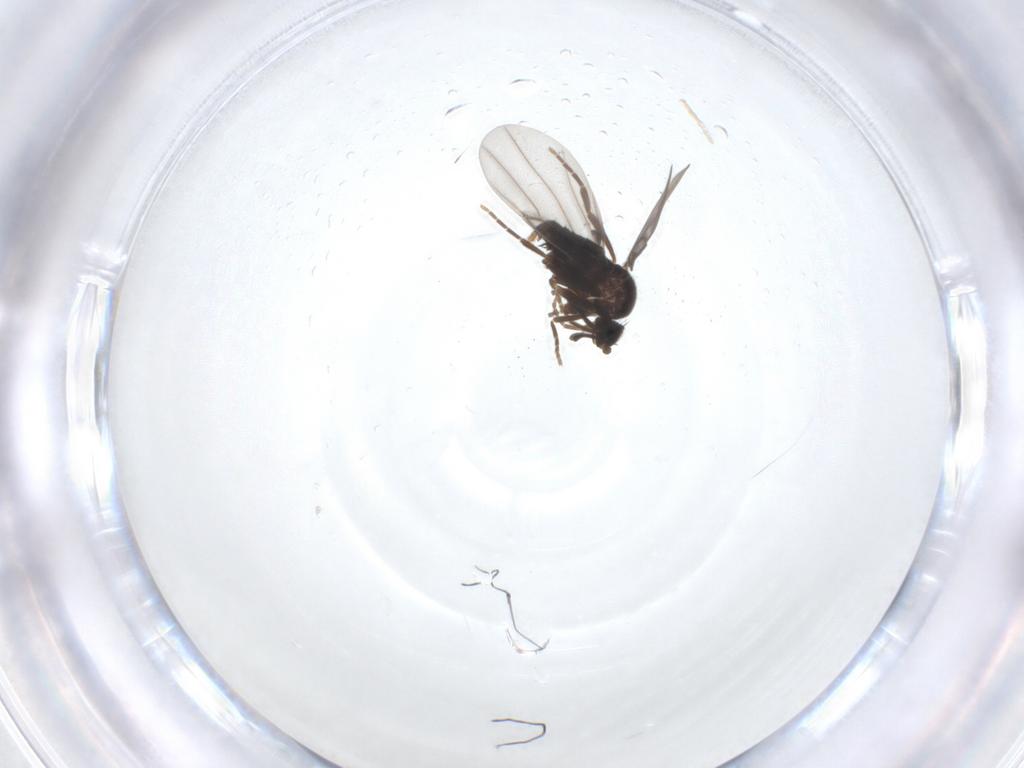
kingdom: Animalia
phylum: Arthropoda
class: Insecta
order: Diptera
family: Phoridae
